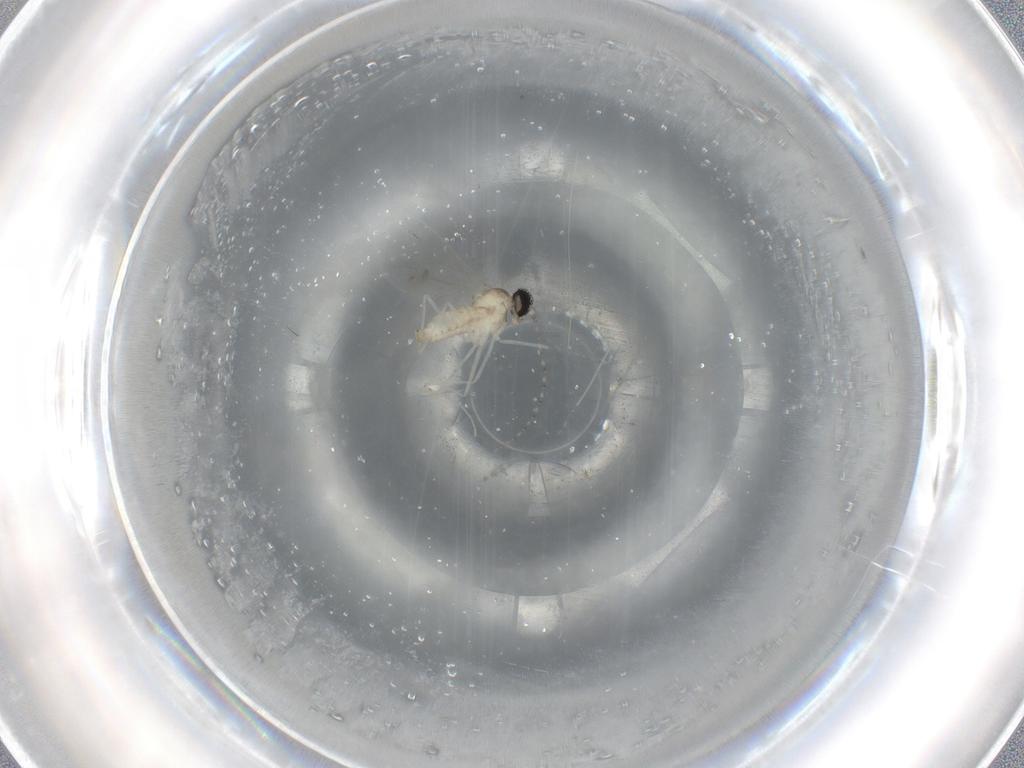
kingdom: Animalia
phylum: Arthropoda
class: Insecta
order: Diptera
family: Cecidomyiidae
